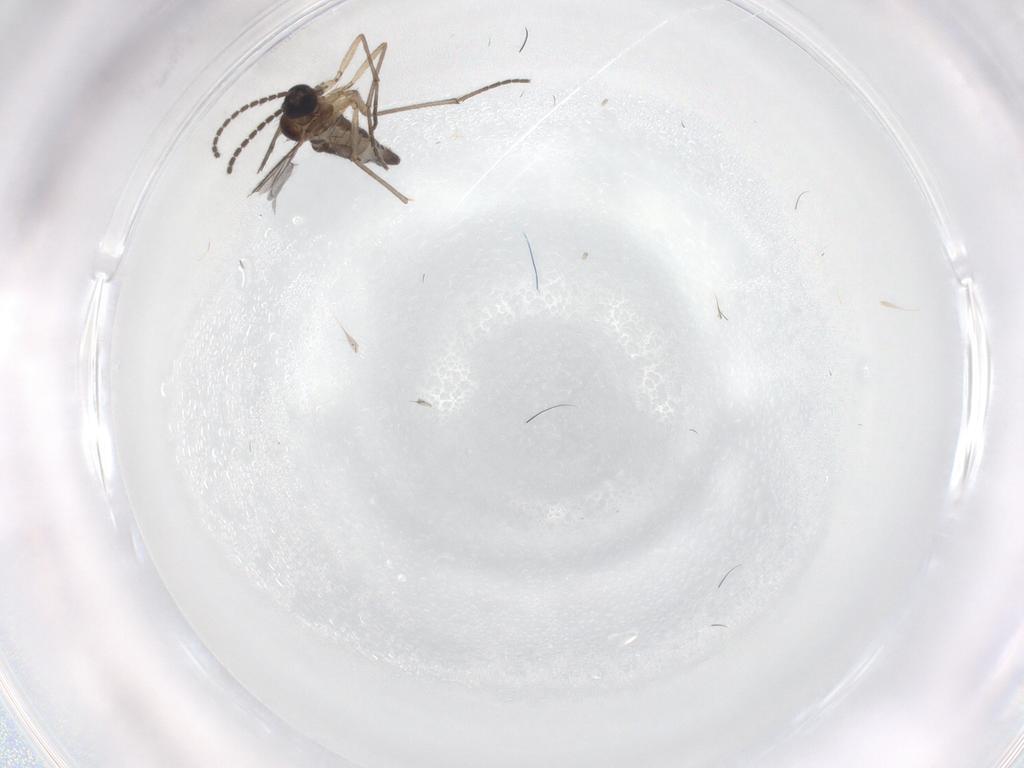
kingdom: Animalia
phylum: Arthropoda
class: Insecta
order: Diptera
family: Sciaridae
